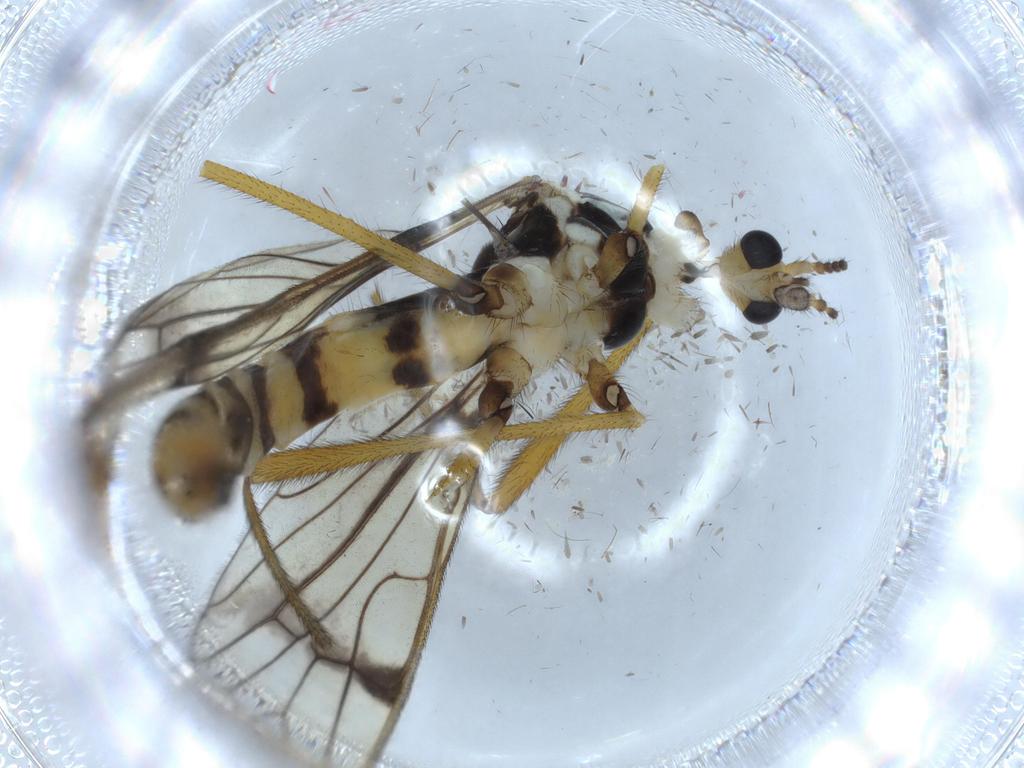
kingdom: Animalia
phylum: Arthropoda
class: Insecta
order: Diptera
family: Limoniidae
